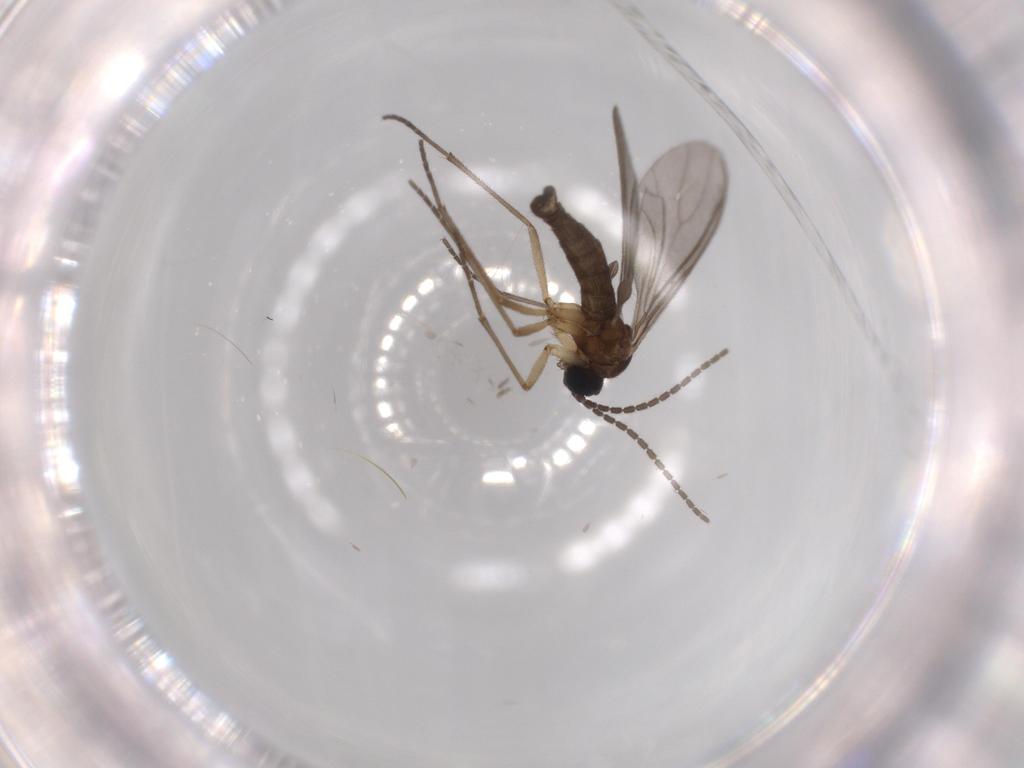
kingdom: Animalia
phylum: Arthropoda
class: Insecta
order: Diptera
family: Sciaridae
